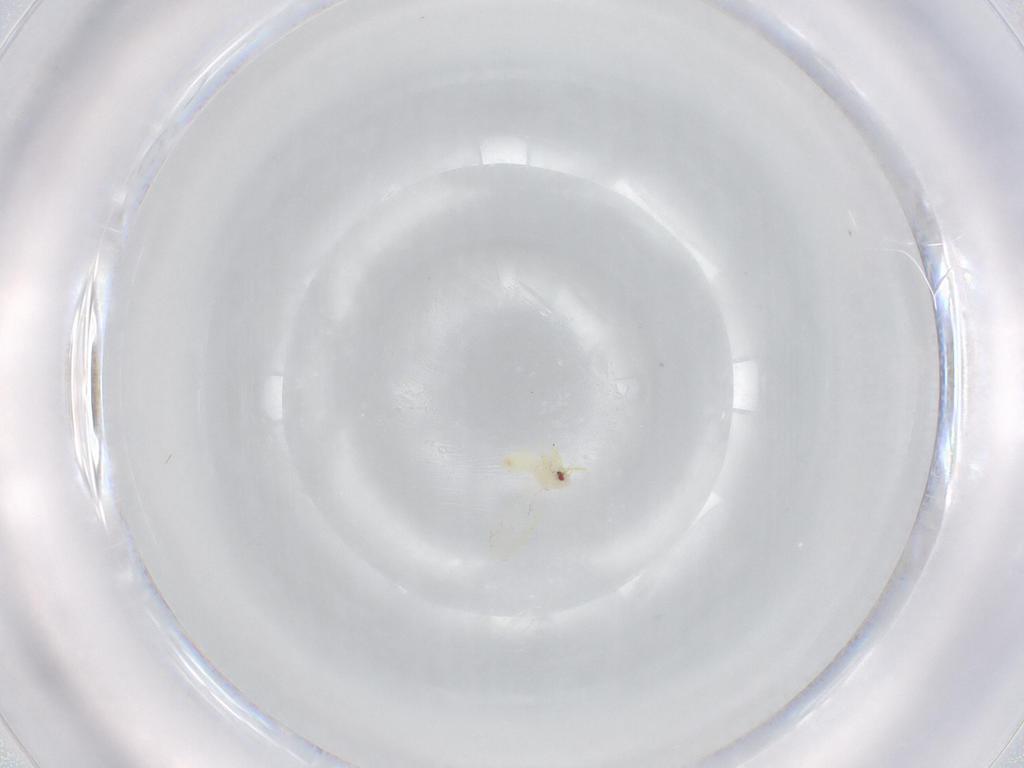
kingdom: Animalia
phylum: Arthropoda
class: Insecta
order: Hemiptera
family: Aleyrodidae
